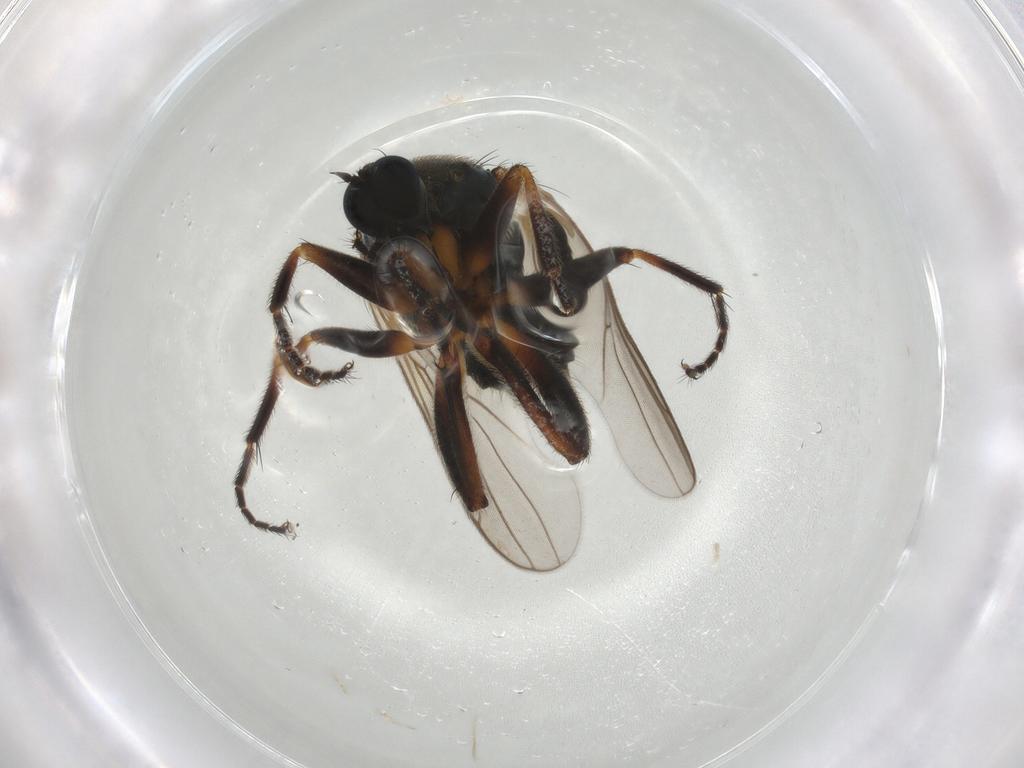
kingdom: Animalia
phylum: Arthropoda
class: Insecta
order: Diptera
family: Hybotidae
